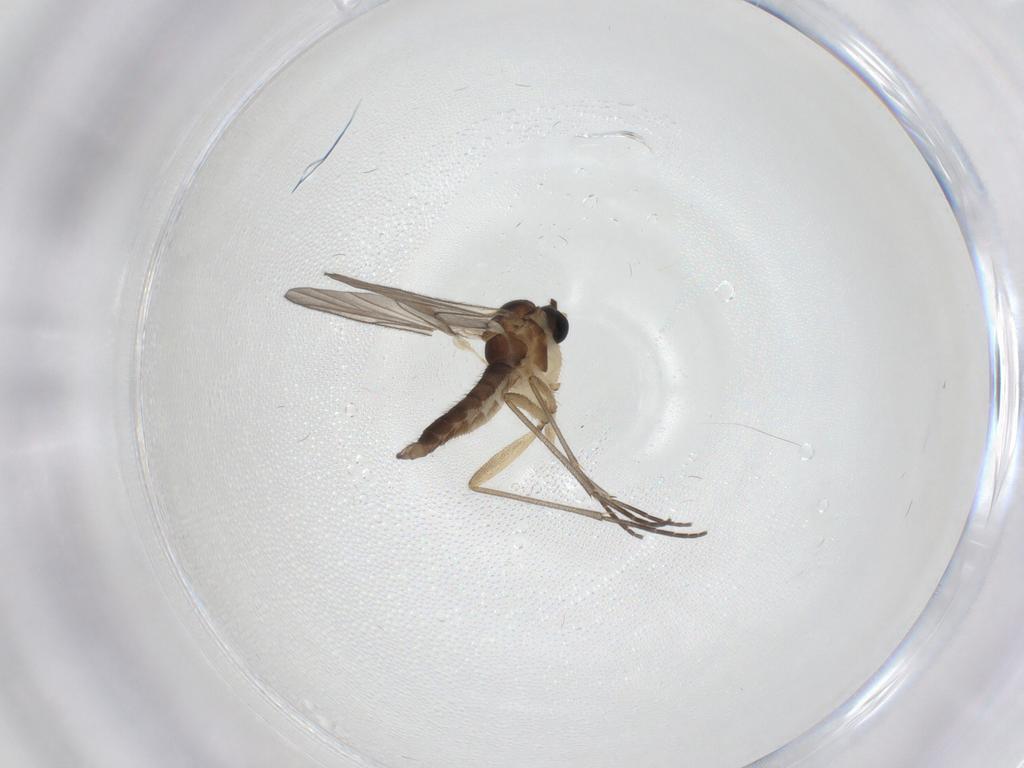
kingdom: Animalia
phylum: Arthropoda
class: Insecta
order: Diptera
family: Sciaridae
